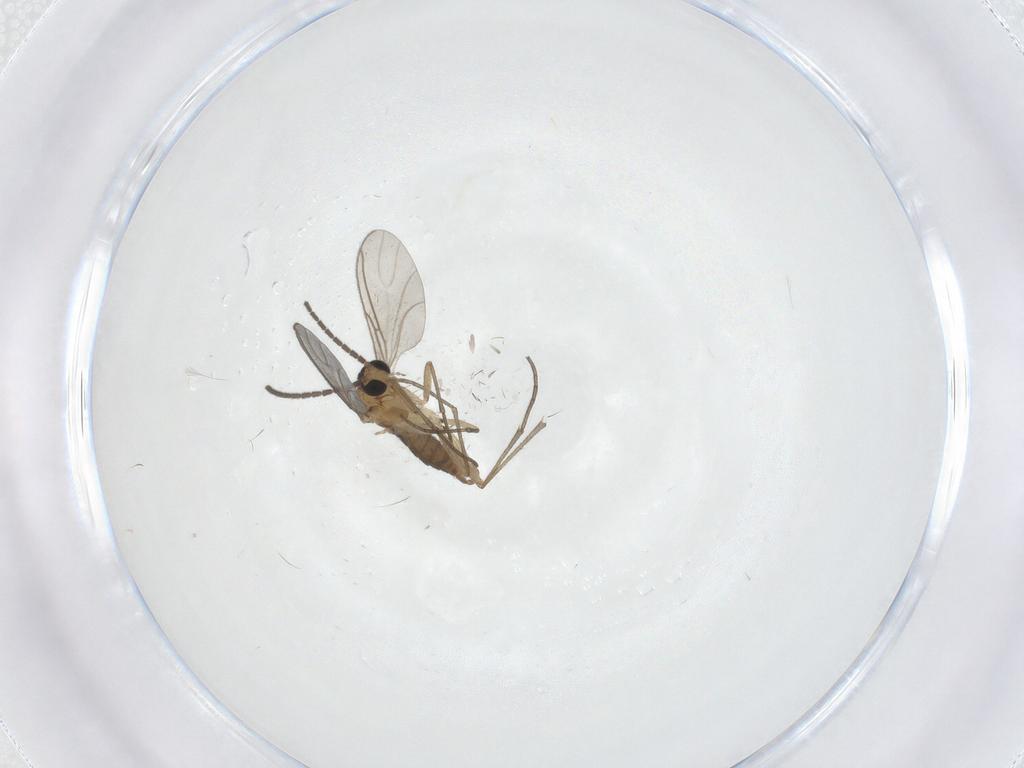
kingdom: Animalia
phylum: Arthropoda
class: Insecta
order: Diptera
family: Sciaridae
